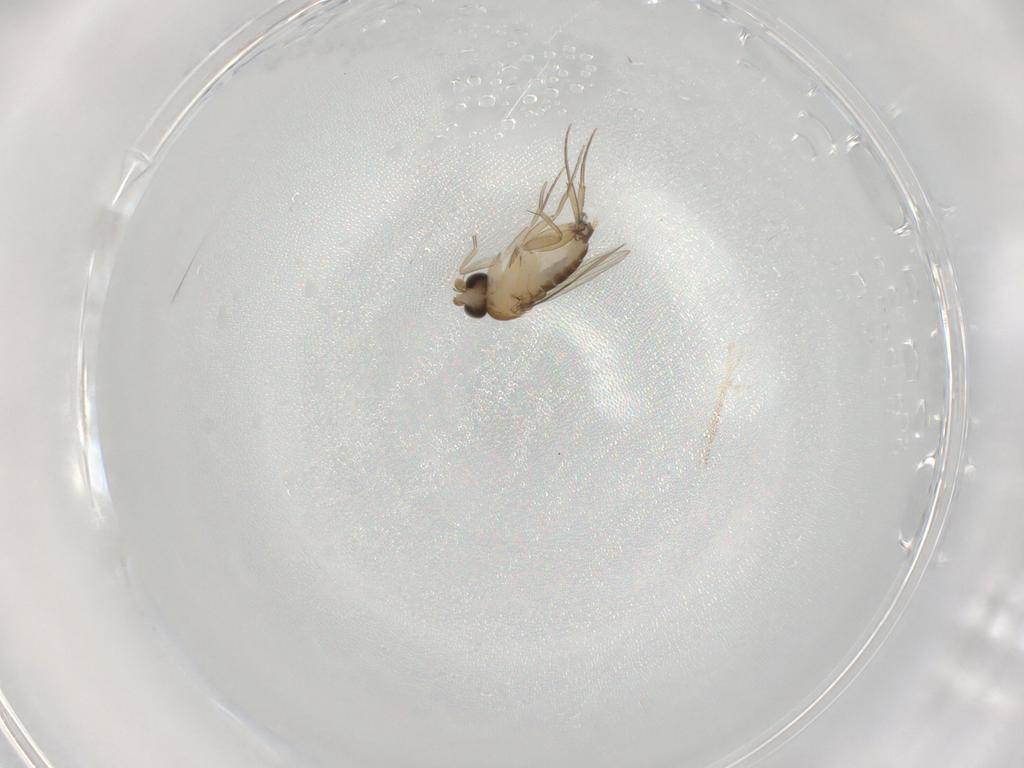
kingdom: Animalia
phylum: Arthropoda
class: Insecta
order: Diptera
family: Phoridae
